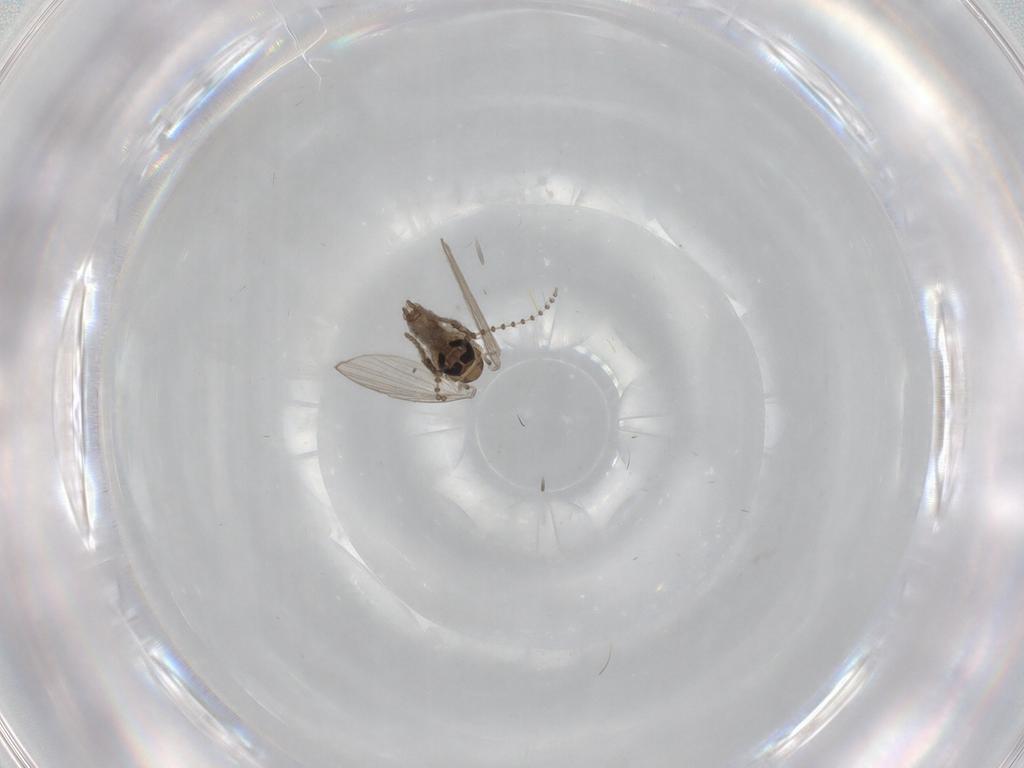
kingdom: Animalia
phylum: Arthropoda
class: Insecta
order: Diptera
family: Psychodidae
